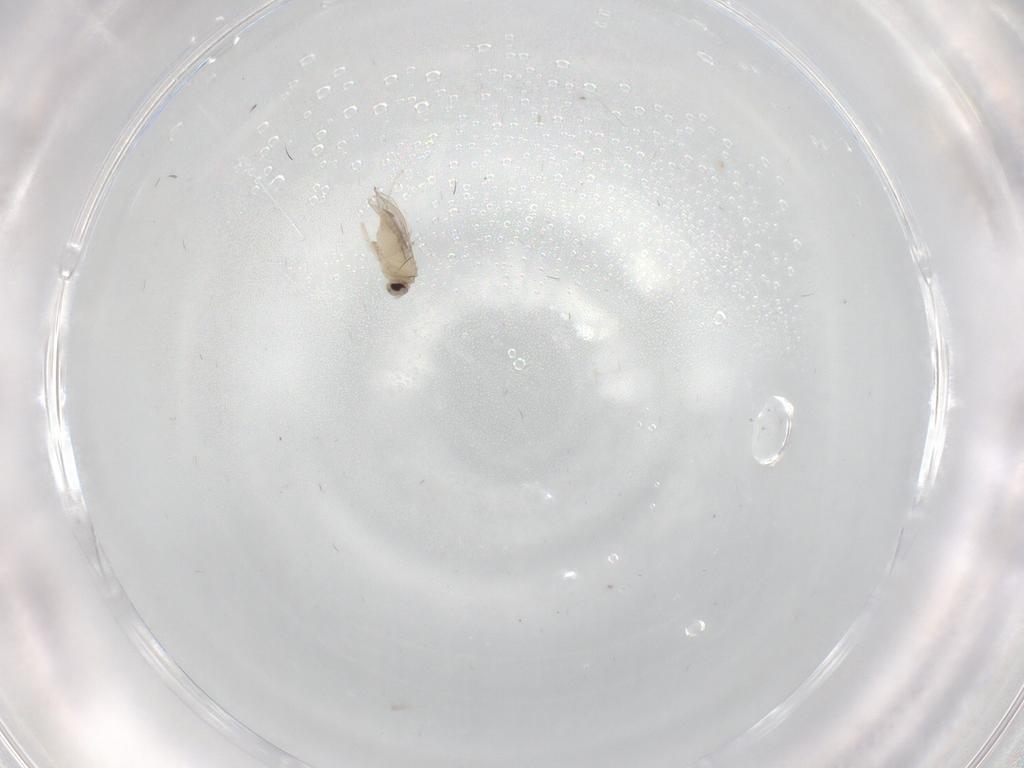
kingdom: Animalia
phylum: Arthropoda
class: Insecta
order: Diptera
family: Cecidomyiidae
